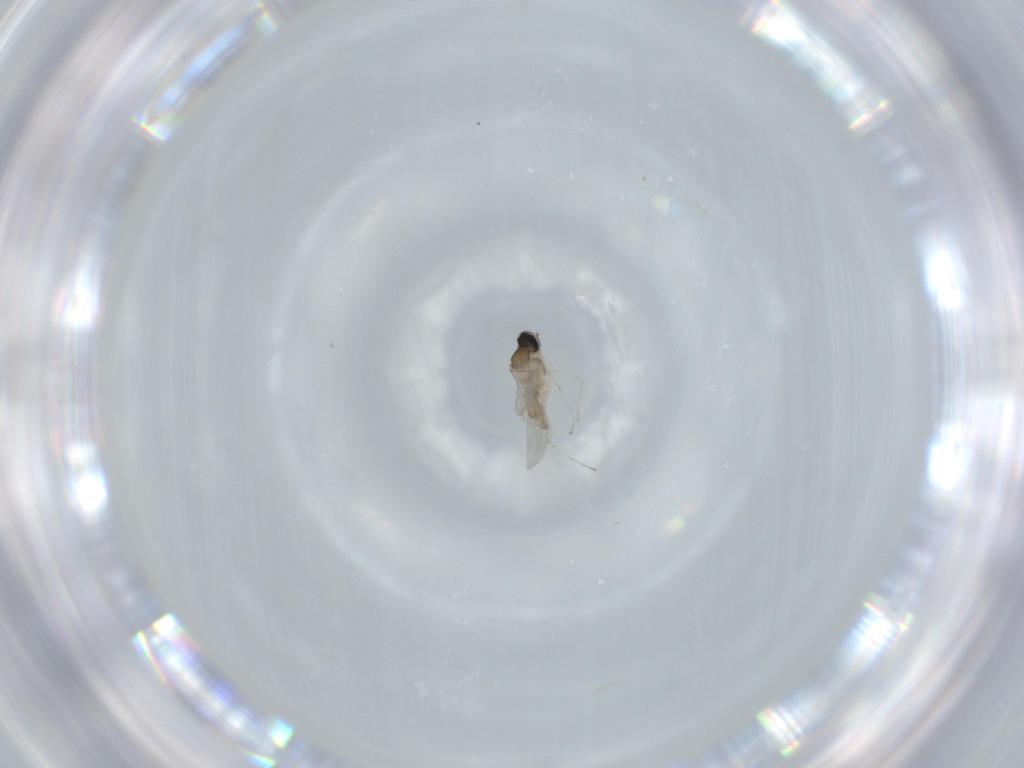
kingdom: Animalia
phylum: Arthropoda
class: Insecta
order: Diptera
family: Cecidomyiidae
